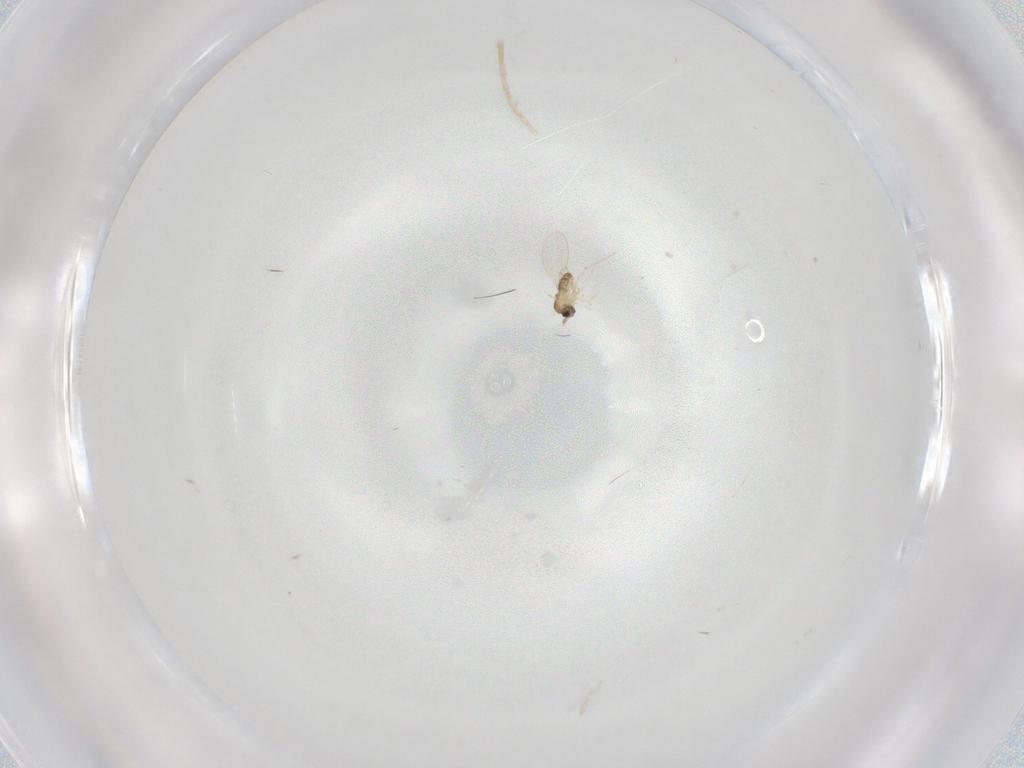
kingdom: Animalia
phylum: Arthropoda
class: Insecta
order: Diptera
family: Cecidomyiidae
